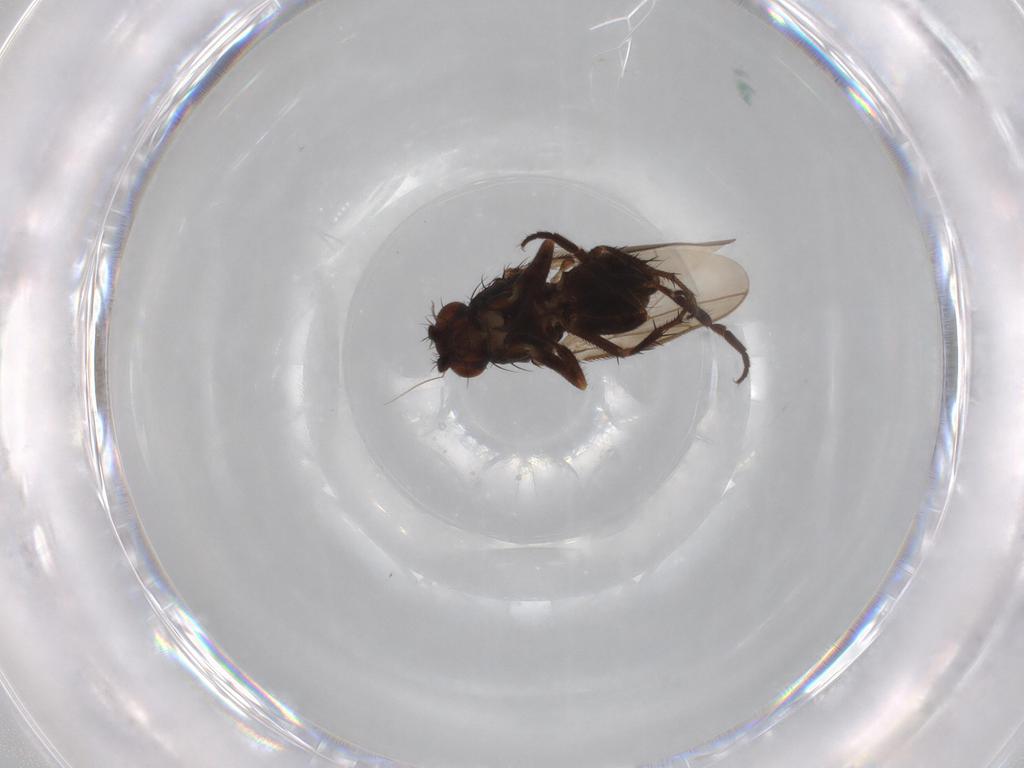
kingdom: Animalia
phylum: Arthropoda
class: Insecta
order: Diptera
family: Sphaeroceridae
